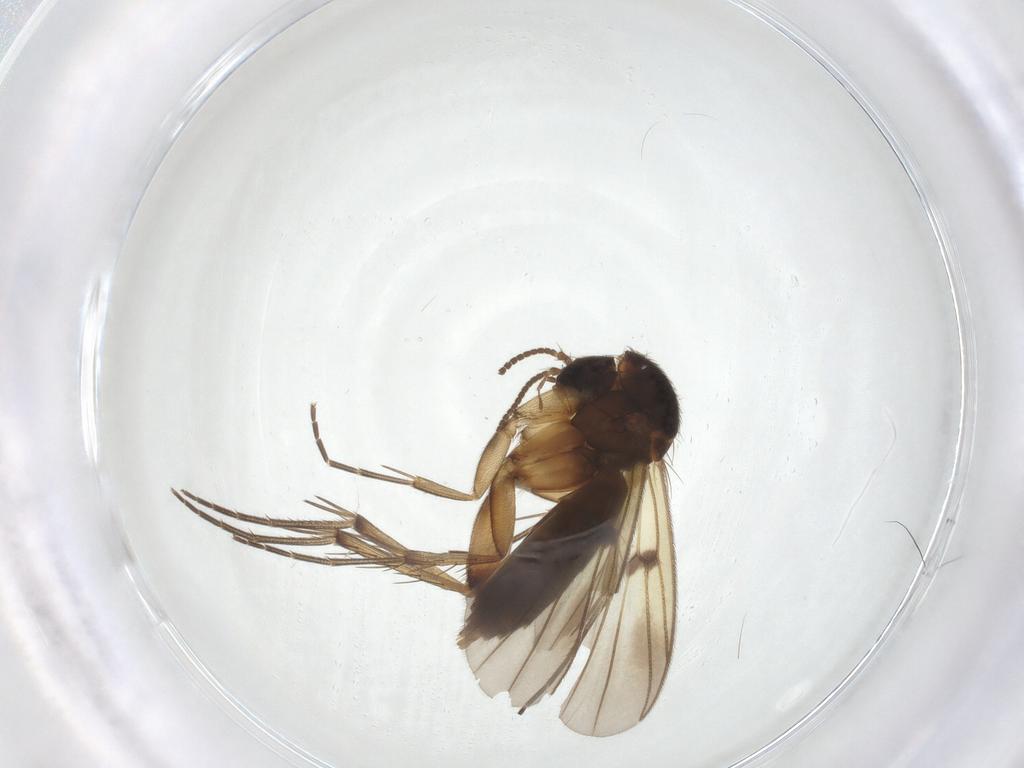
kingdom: Animalia
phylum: Arthropoda
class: Insecta
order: Diptera
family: Mycetophilidae
